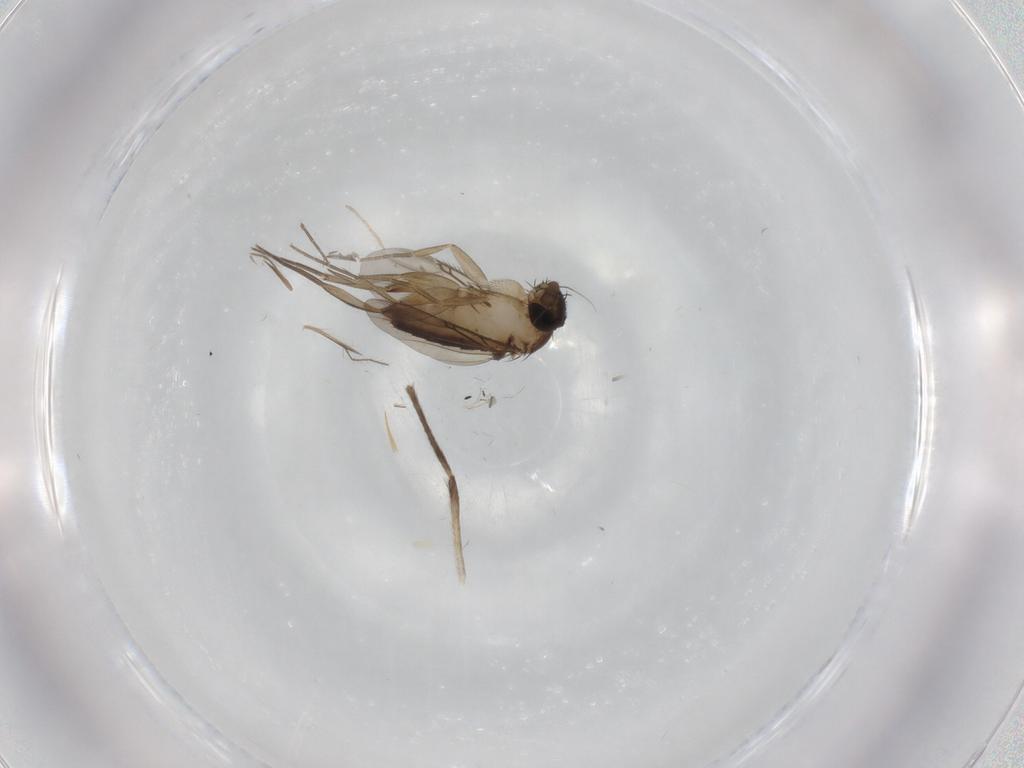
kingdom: Animalia
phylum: Arthropoda
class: Insecta
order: Diptera
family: Phoridae
